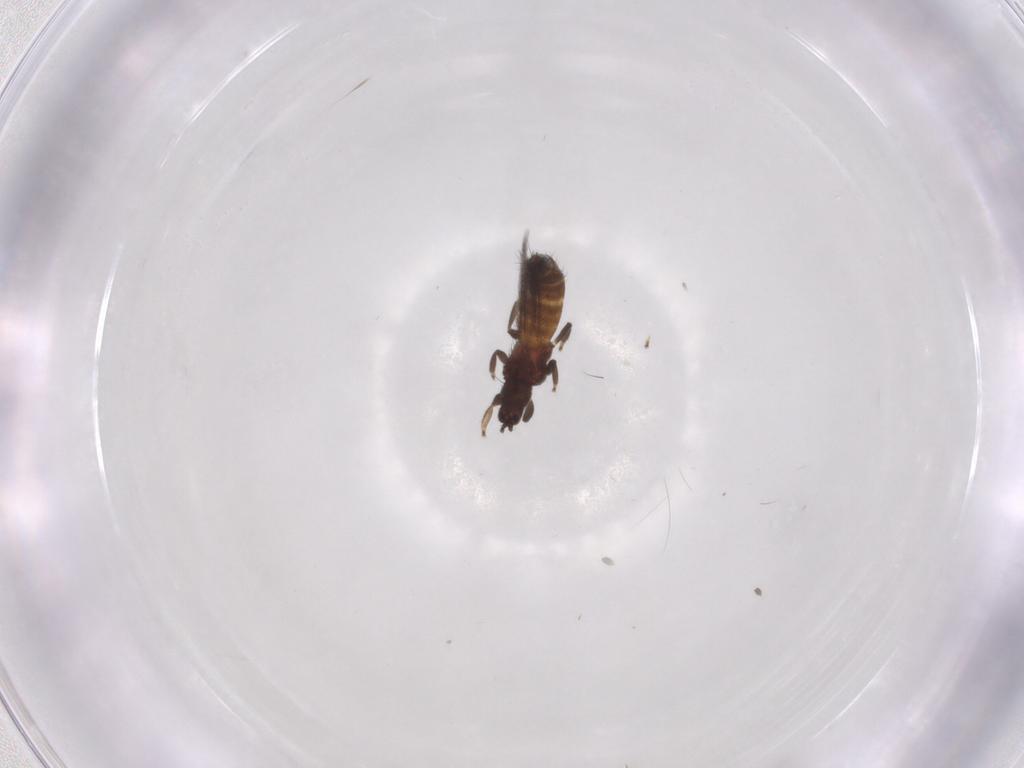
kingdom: Animalia
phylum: Arthropoda
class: Insecta
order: Thysanoptera
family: Thripidae
